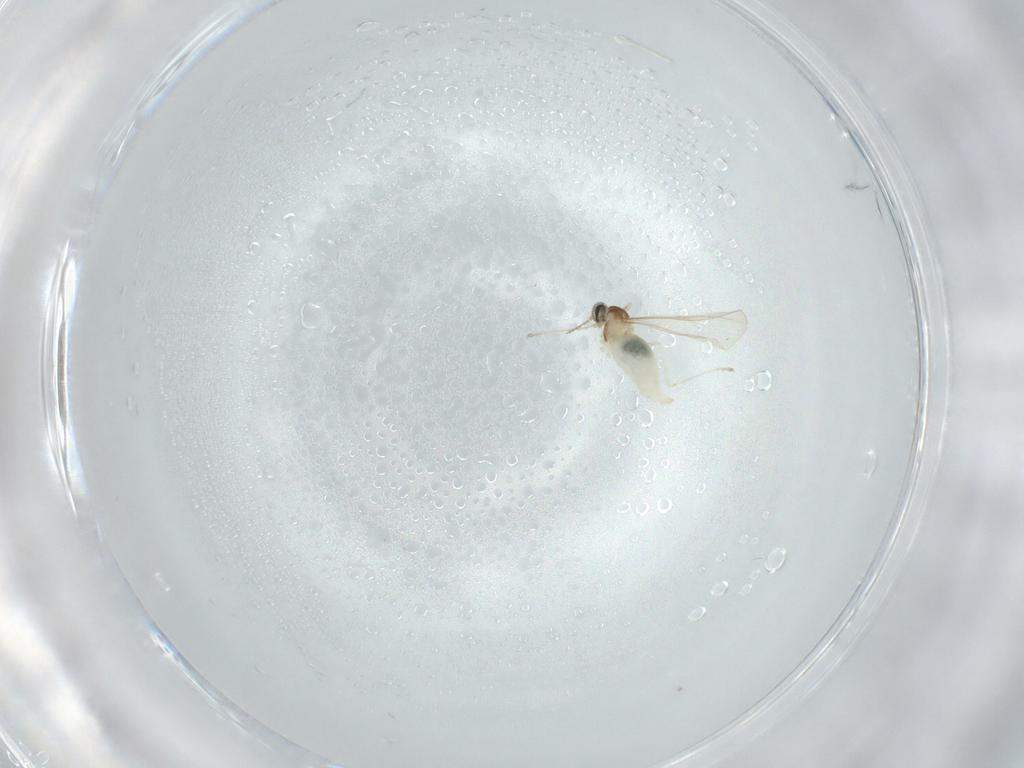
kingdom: Animalia
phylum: Arthropoda
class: Insecta
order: Diptera
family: Cecidomyiidae
